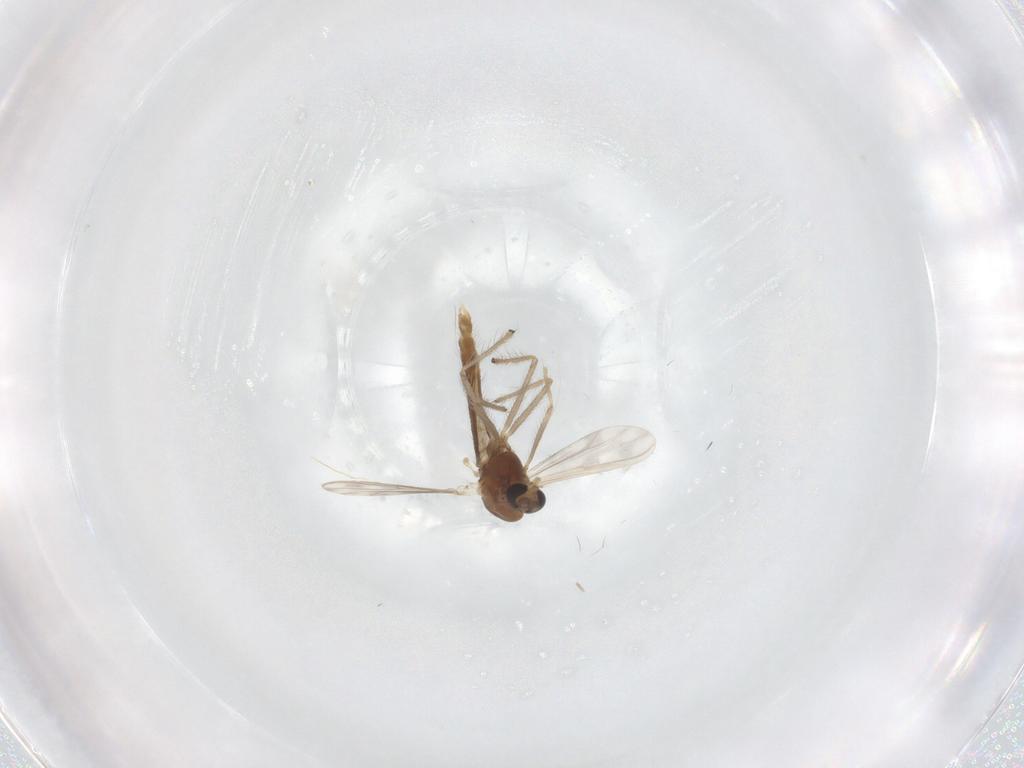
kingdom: Animalia
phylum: Arthropoda
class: Insecta
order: Diptera
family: Chironomidae
